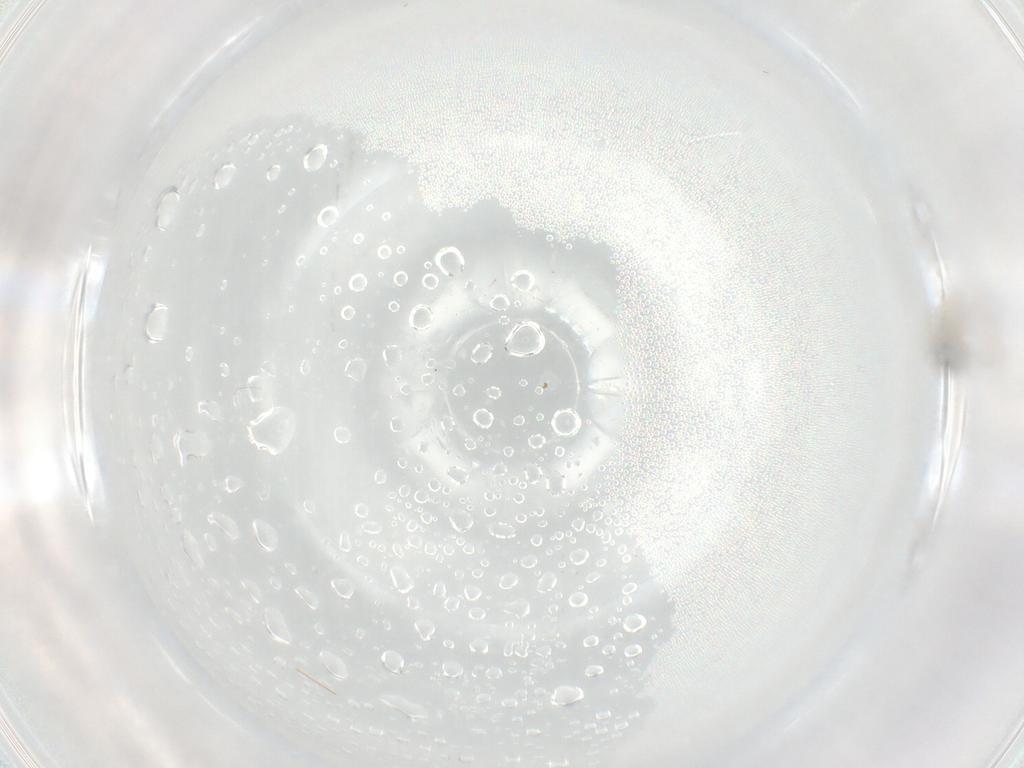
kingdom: Animalia
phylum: Arthropoda
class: Insecta
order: Diptera
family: Cecidomyiidae
